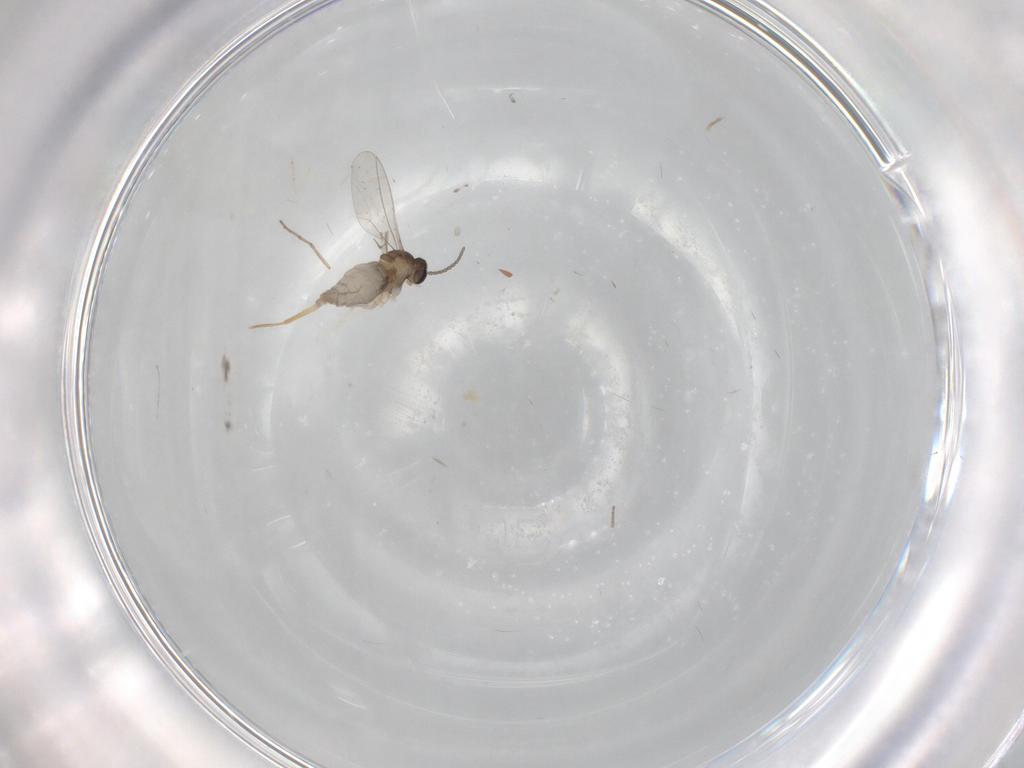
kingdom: Animalia
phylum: Arthropoda
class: Insecta
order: Diptera
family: Cecidomyiidae
